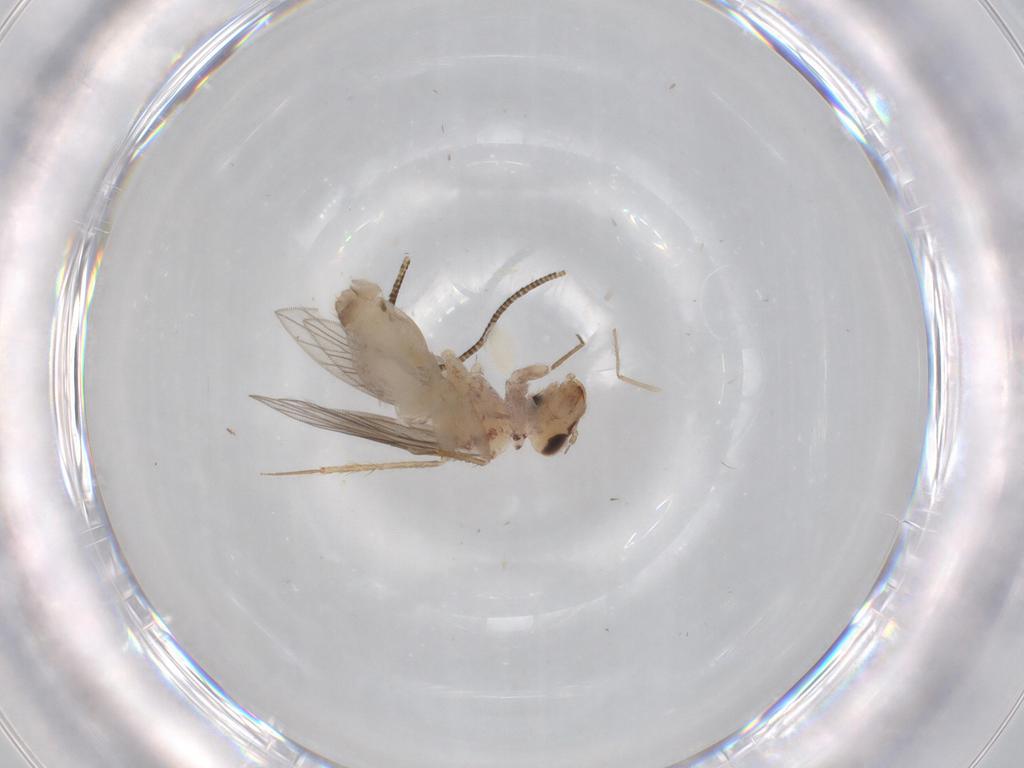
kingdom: Animalia
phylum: Arthropoda
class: Insecta
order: Psocodea
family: Lepidopsocidae
